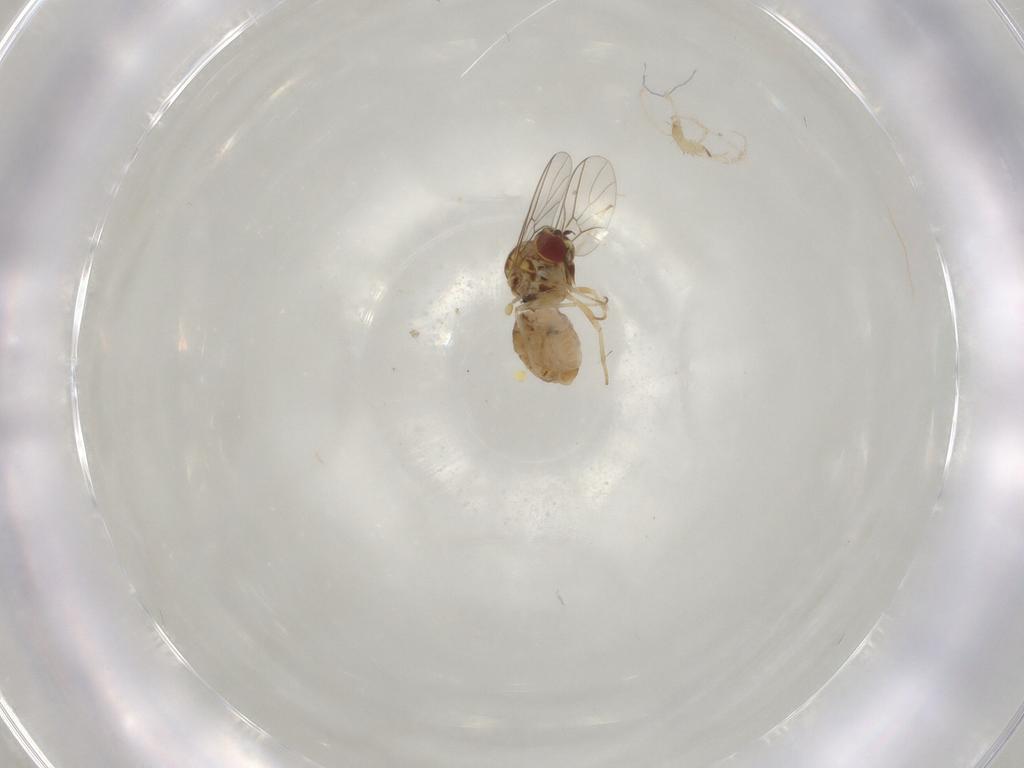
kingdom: Animalia
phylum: Arthropoda
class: Insecta
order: Diptera
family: Mythicomyiidae
